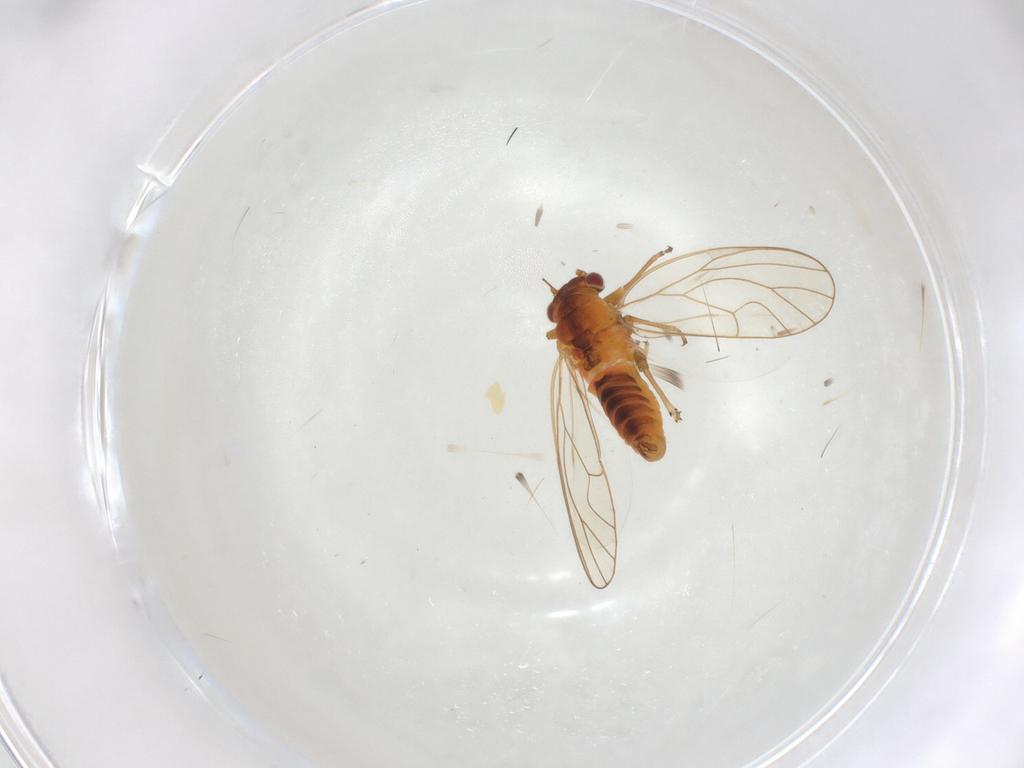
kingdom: Animalia
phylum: Arthropoda
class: Insecta
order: Hemiptera
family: Psyllidae
